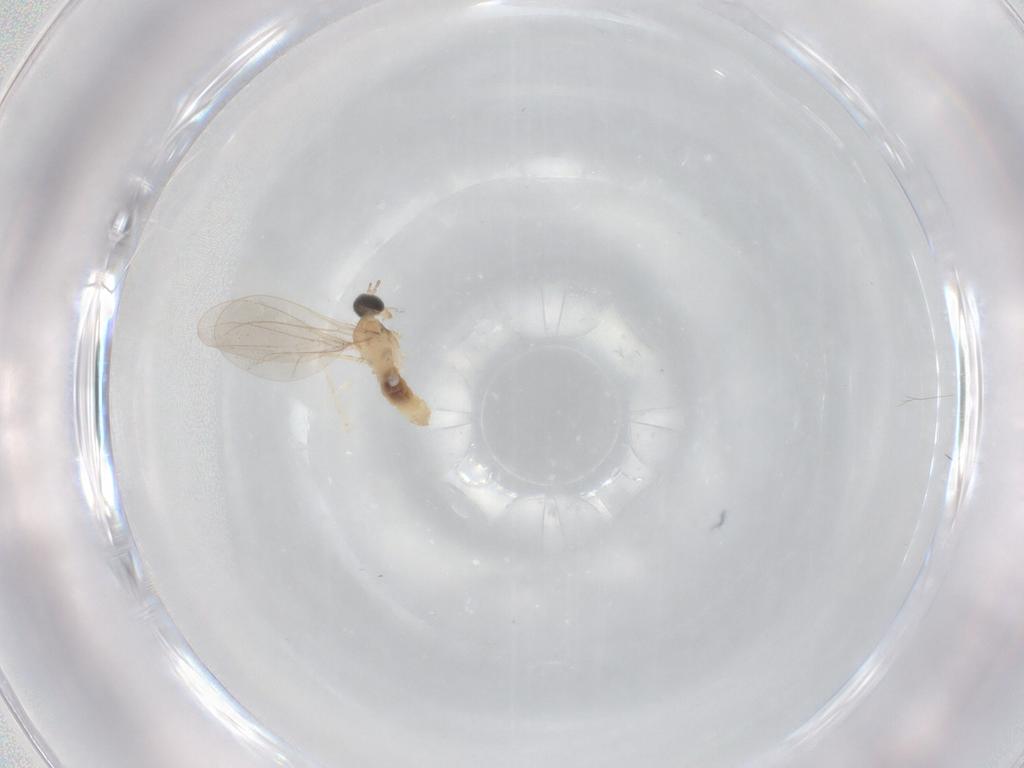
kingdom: Animalia
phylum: Arthropoda
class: Insecta
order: Diptera
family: Cecidomyiidae
